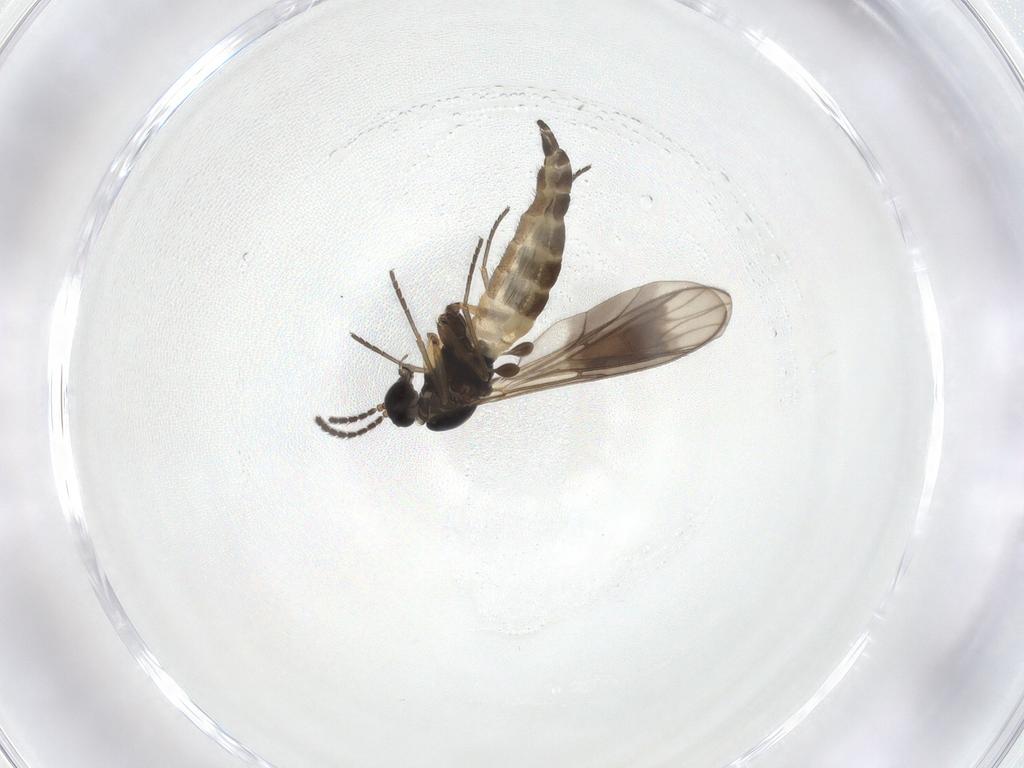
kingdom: Animalia
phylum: Arthropoda
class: Insecta
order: Diptera
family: Sciaridae
